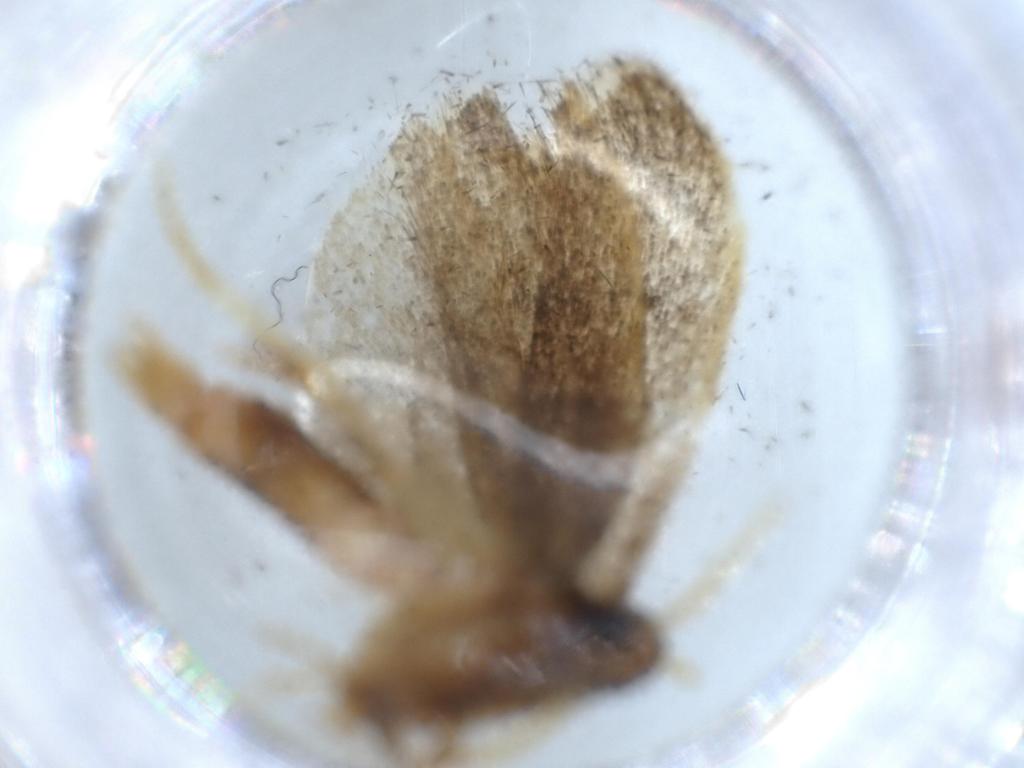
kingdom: Animalia
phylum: Arthropoda
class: Insecta
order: Lepidoptera
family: Lecithoceridae
